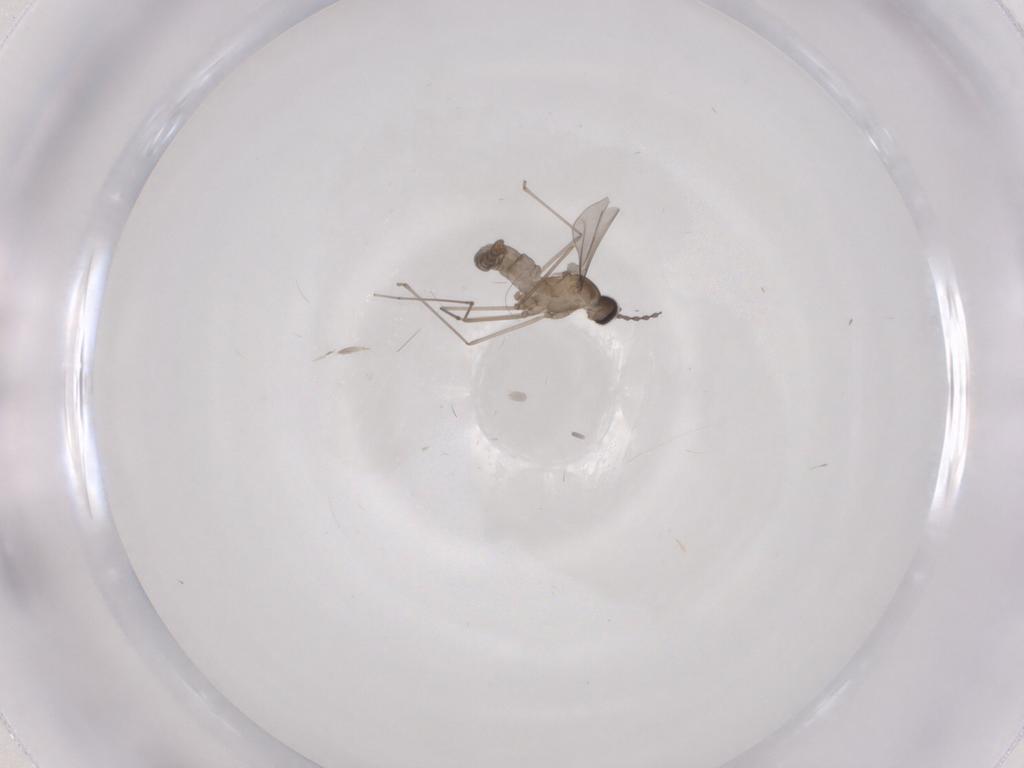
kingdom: Animalia
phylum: Arthropoda
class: Insecta
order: Diptera
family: Cecidomyiidae
